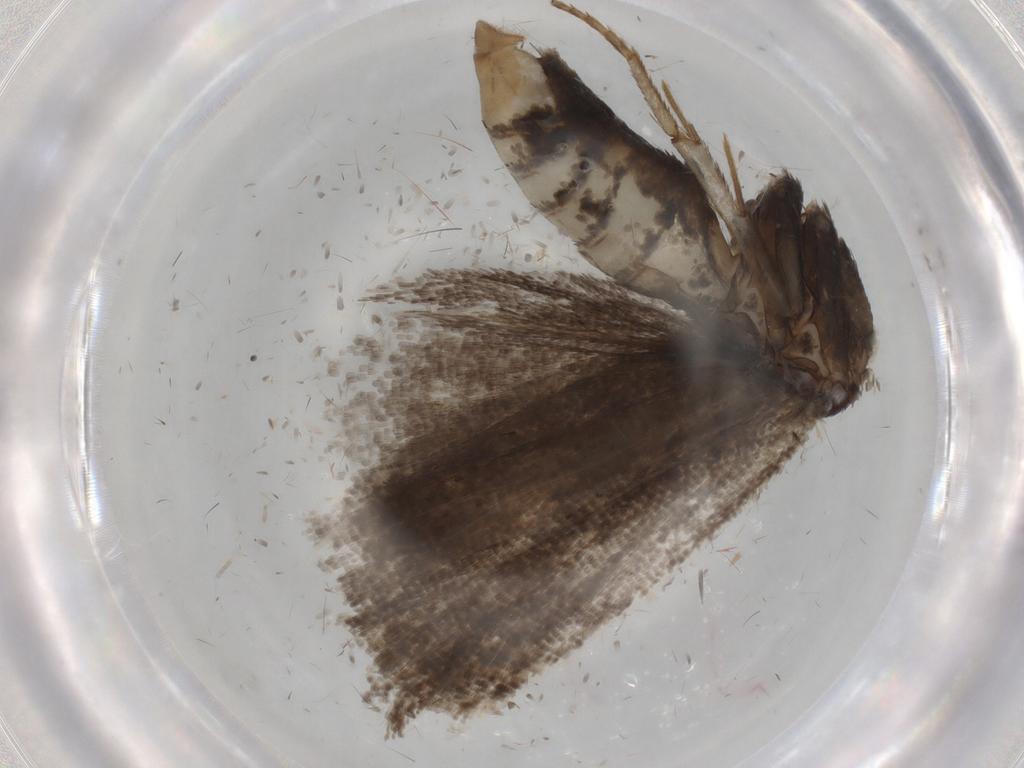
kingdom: Animalia
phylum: Arthropoda
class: Insecta
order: Lepidoptera
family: Tortricidae
